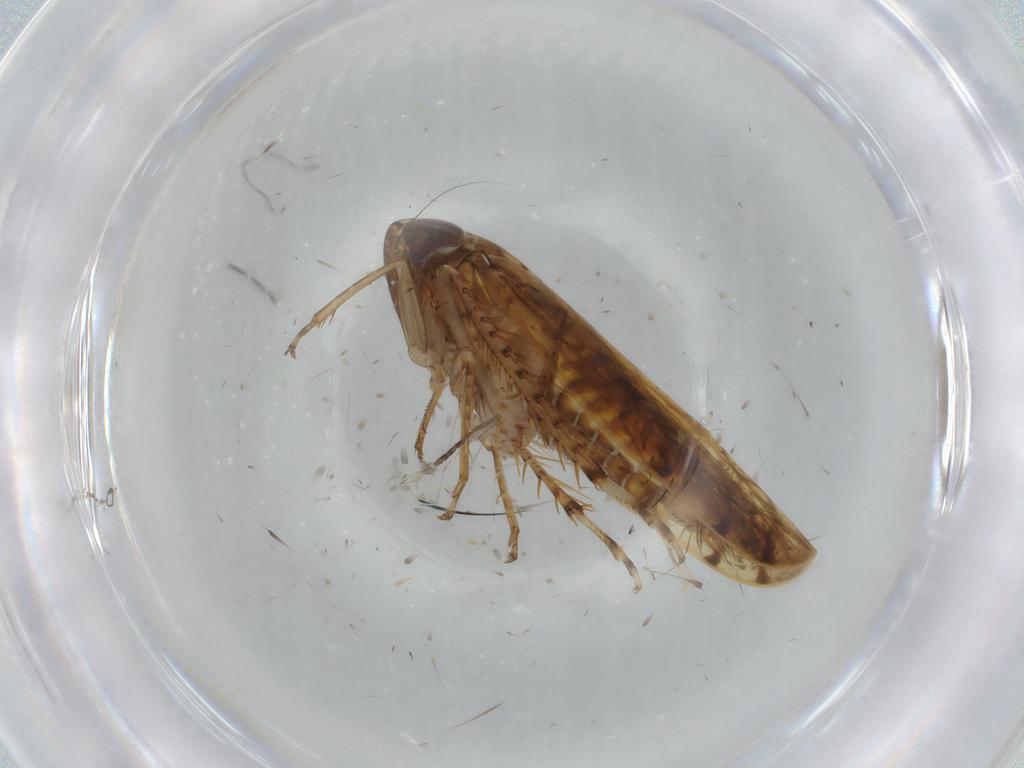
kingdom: Animalia
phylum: Arthropoda
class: Insecta
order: Hemiptera
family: Cicadellidae
